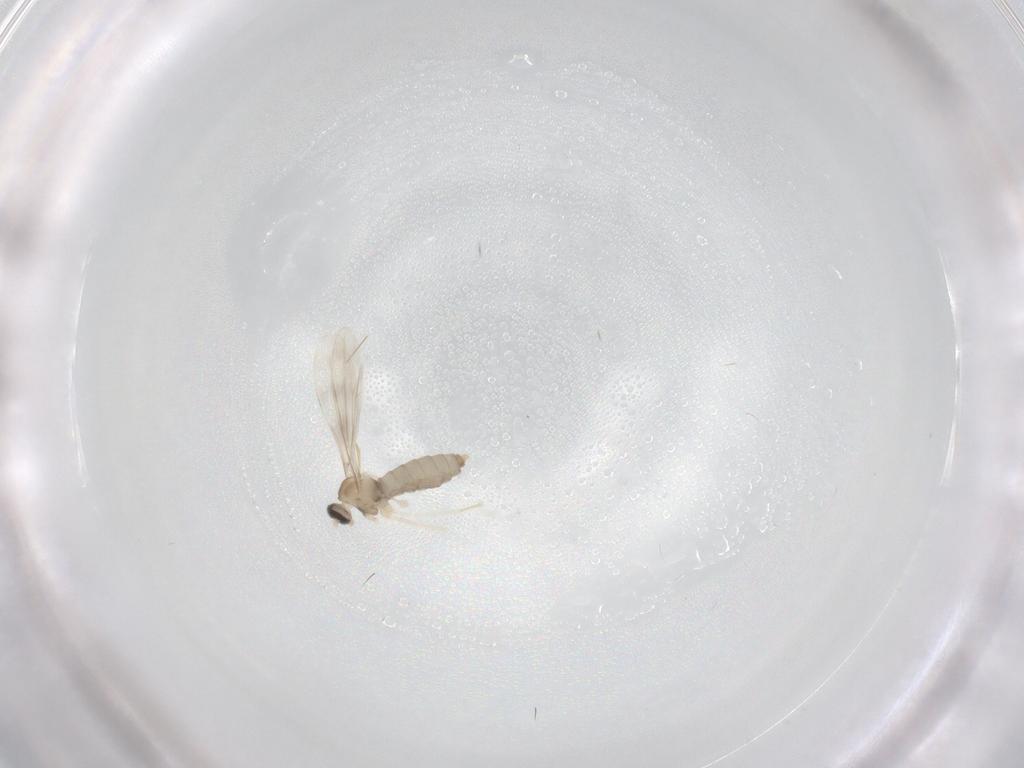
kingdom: Animalia
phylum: Arthropoda
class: Insecta
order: Diptera
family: Cecidomyiidae
